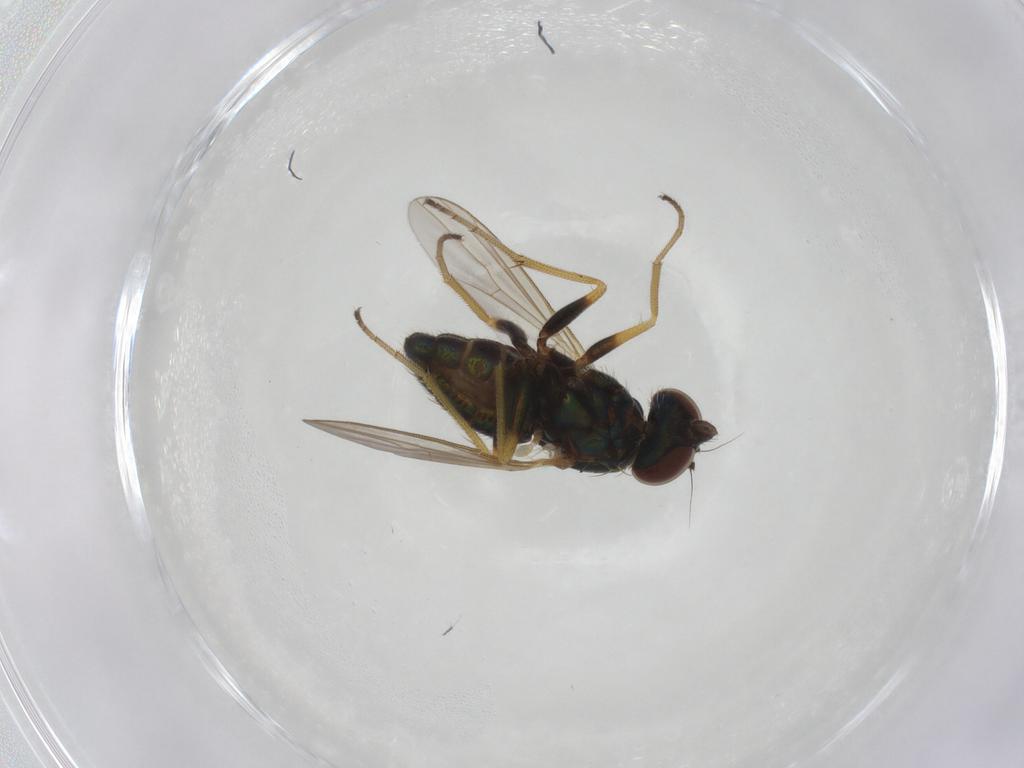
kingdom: Animalia
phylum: Arthropoda
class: Insecta
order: Diptera
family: Dolichopodidae
